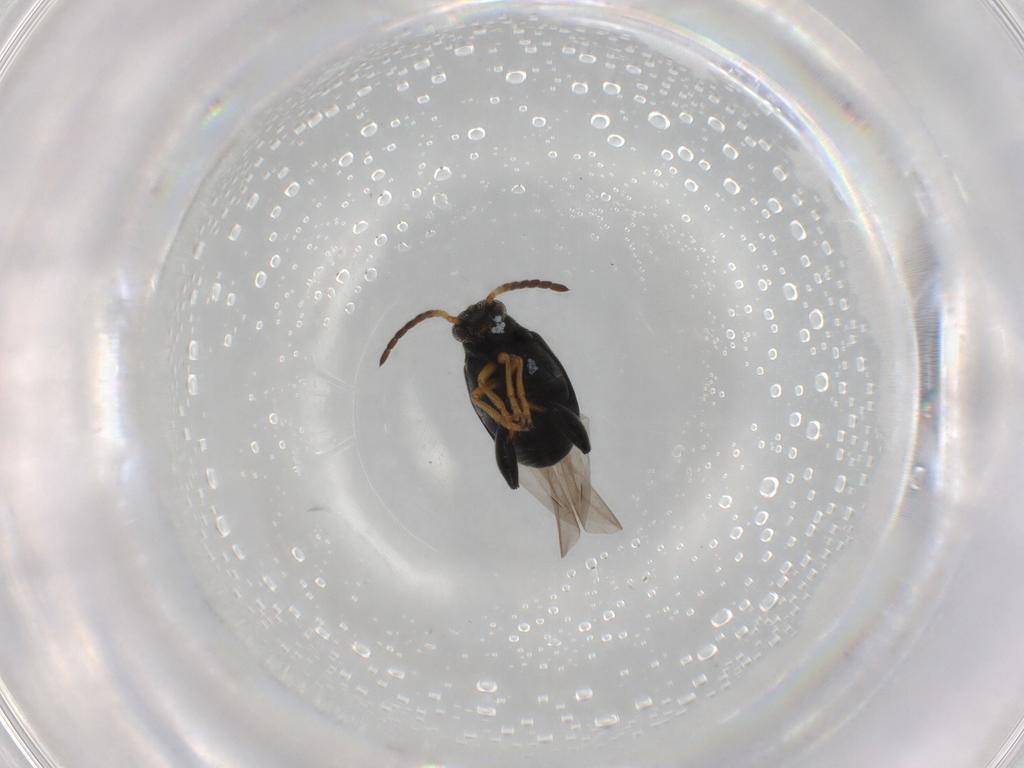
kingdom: Animalia
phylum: Arthropoda
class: Insecta
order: Coleoptera
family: Chrysomelidae
